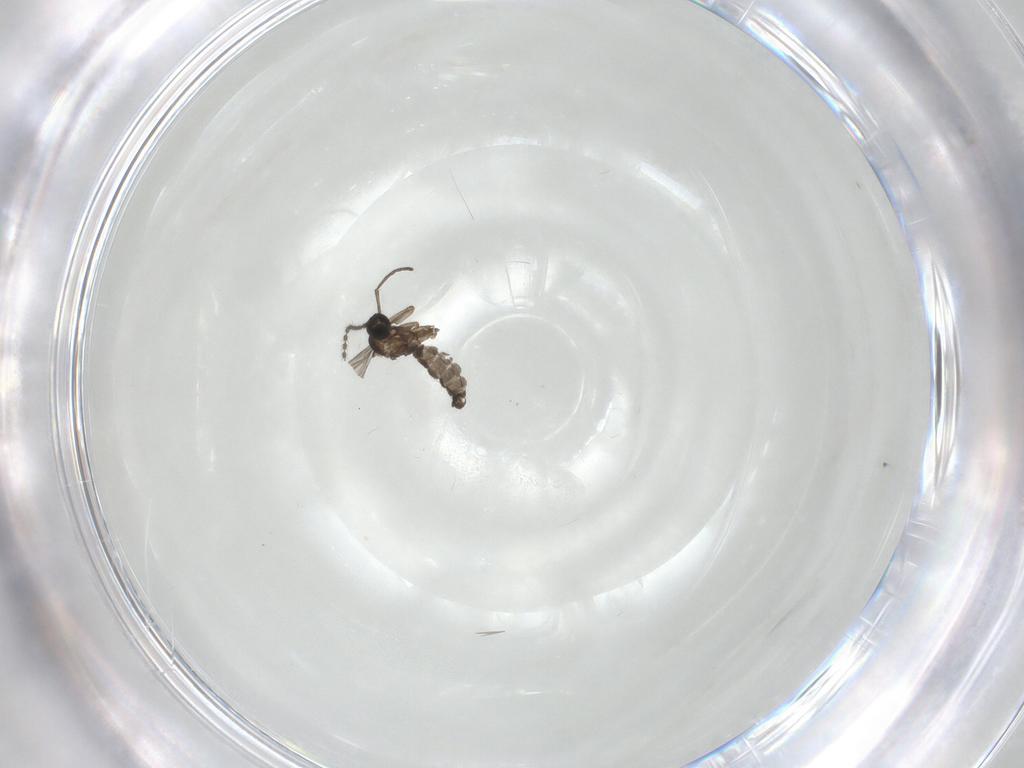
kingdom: Animalia
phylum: Arthropoda
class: Insecta
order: Diptera
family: Sciaridae
